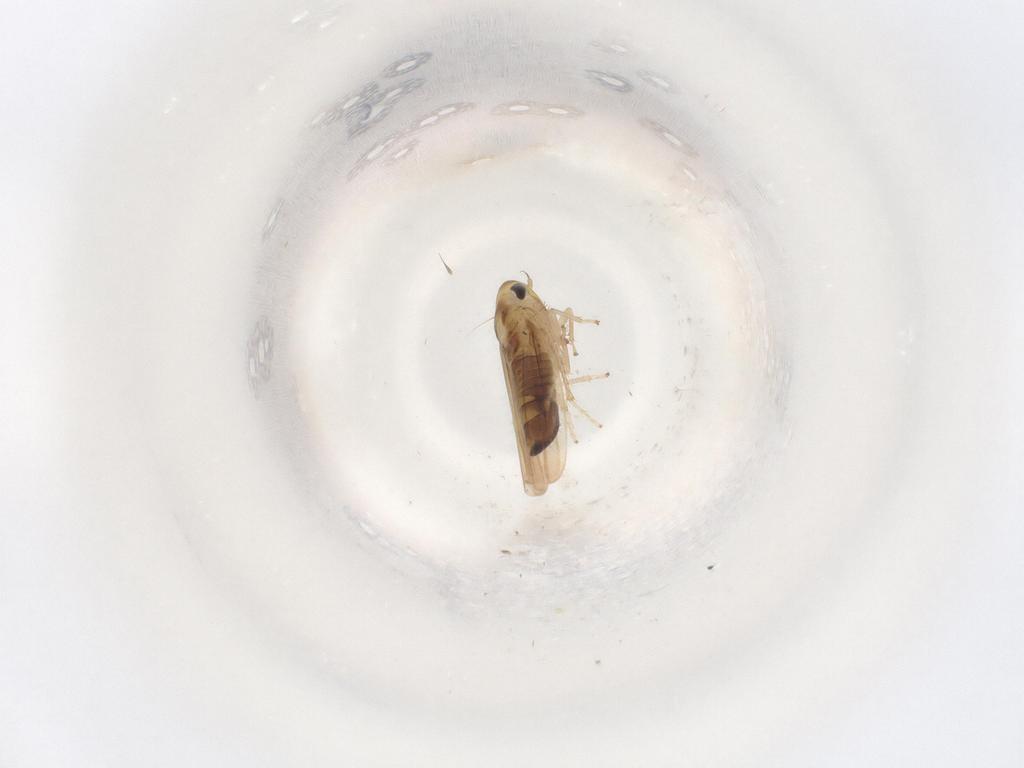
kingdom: Animalia
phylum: Arthropoda
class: Insecta
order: Hemiptera
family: Cicadellidae
